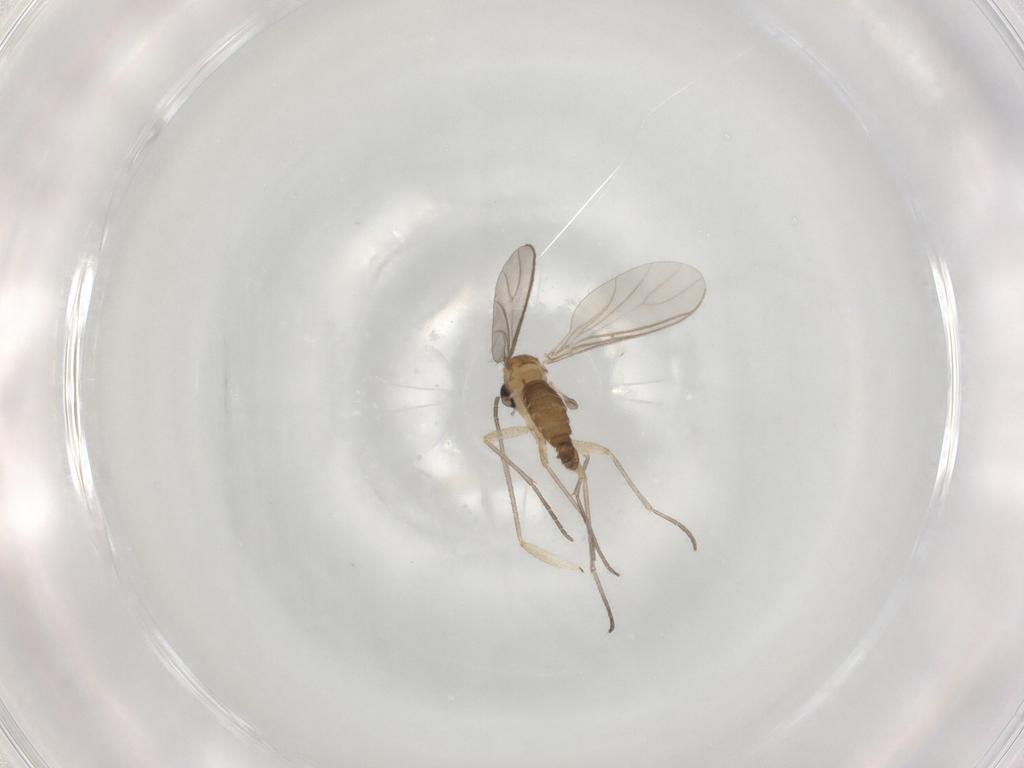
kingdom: Animalia
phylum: Arthropoda
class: Insecta
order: Diptera
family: Sciaridae
